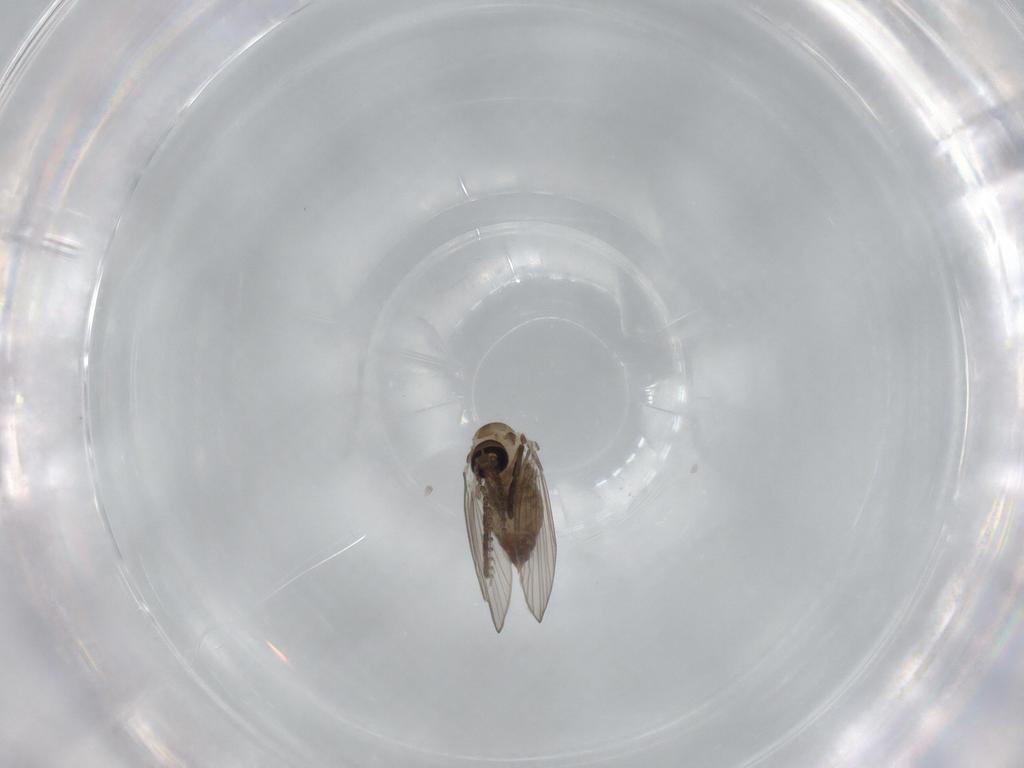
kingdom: Animalia
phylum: Arthropoda
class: Insecta
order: Diptera
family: Psychodidae
